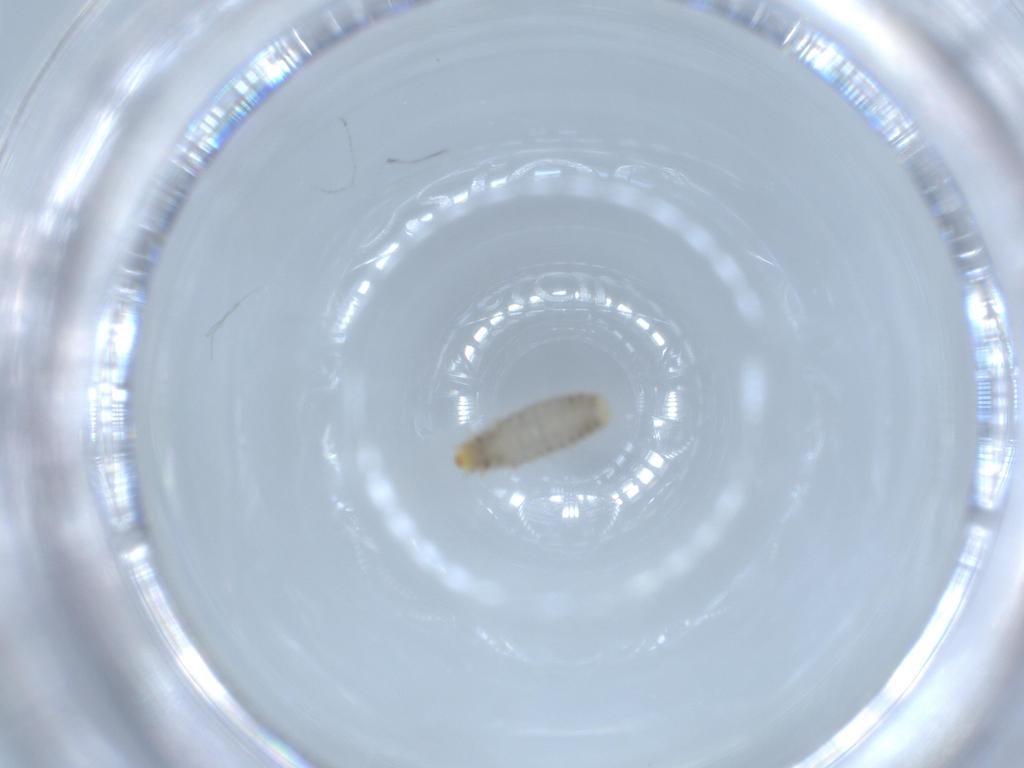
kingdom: Animalia
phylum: Arthropoda
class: Insecta
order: Coleoptera
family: Corylophidae
